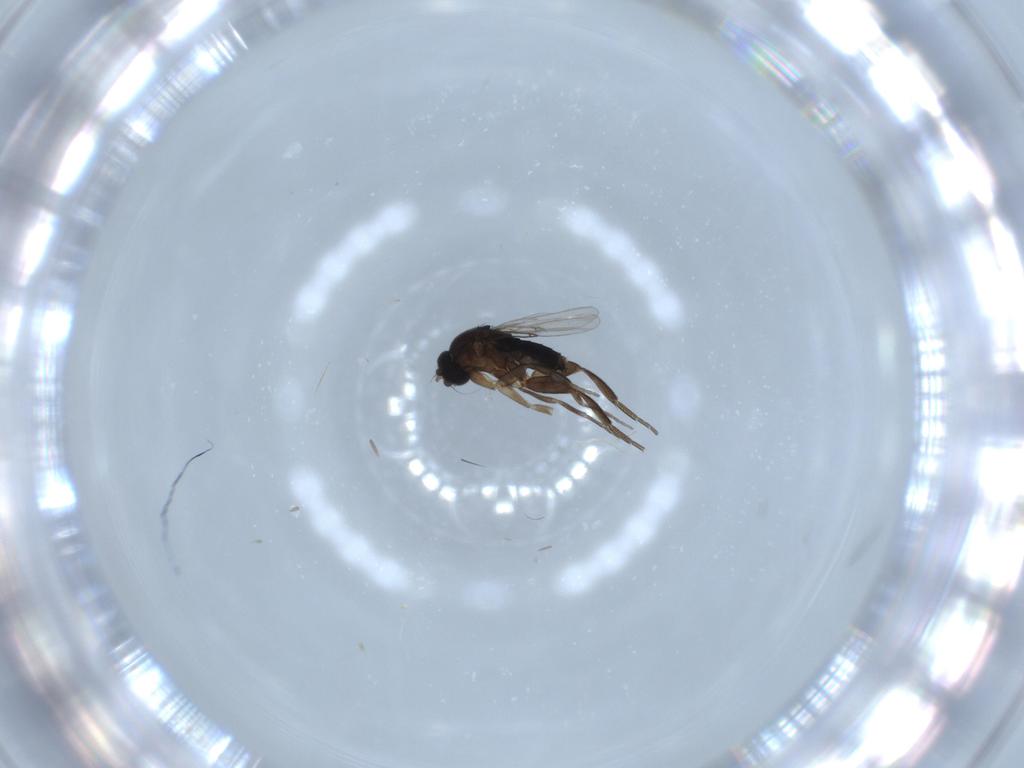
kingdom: Animalia
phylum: Arthropoda
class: Insecta
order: Diptera
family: Phoridae
